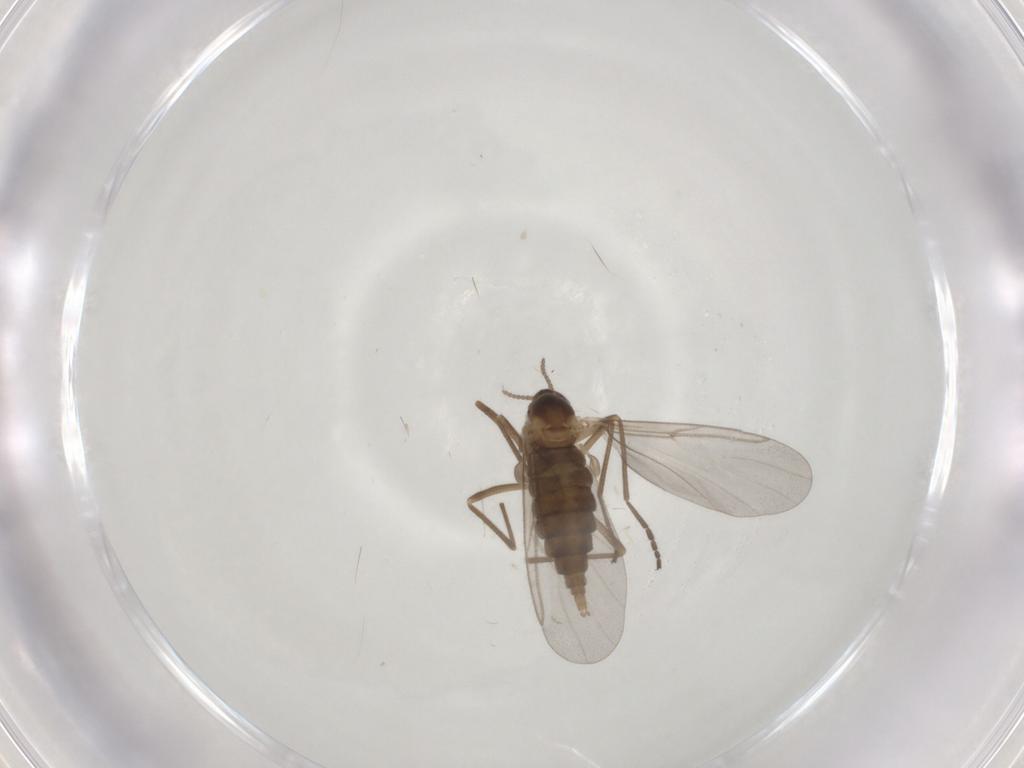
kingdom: Animalia
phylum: Arthropoda
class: Insecta
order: Diptera
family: Cecidomyiidae
